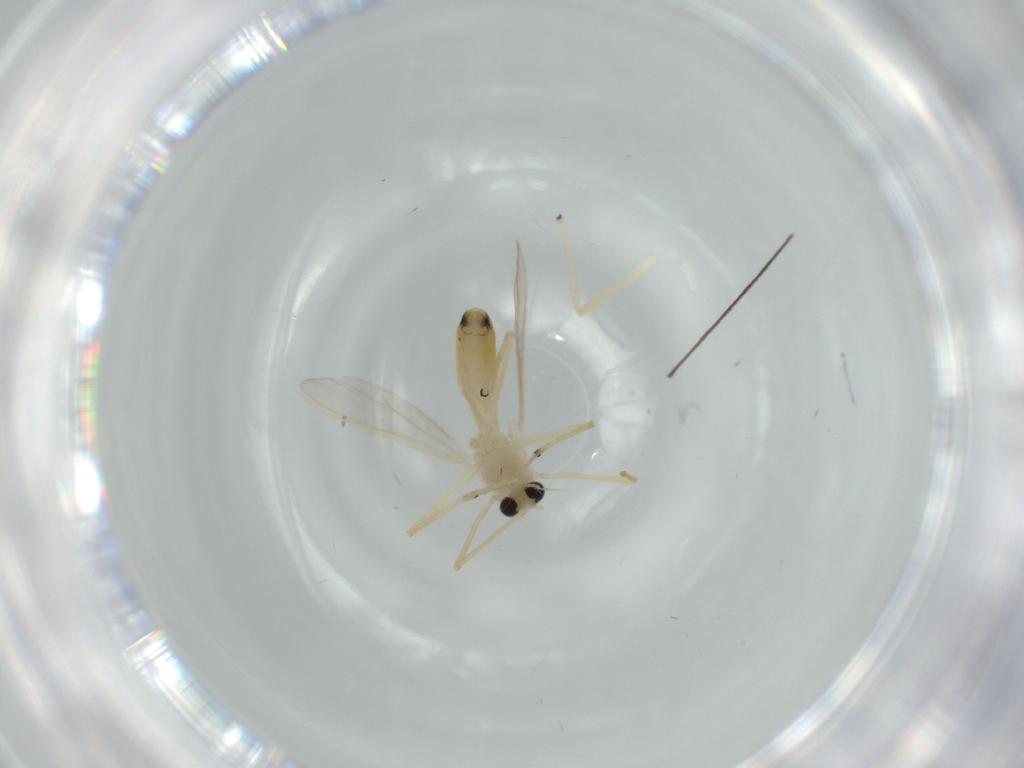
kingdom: Animalia
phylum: Arthropoda
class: Insecta
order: Diptera
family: Chironomidae
